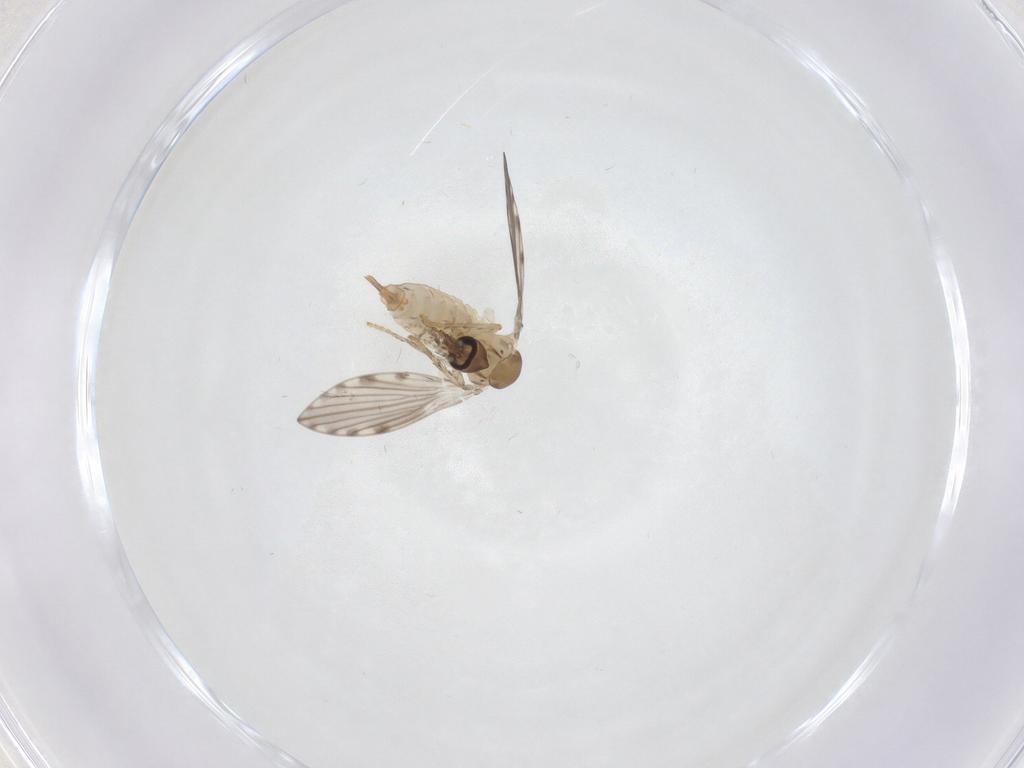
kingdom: Animalia
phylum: Arthropoda
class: Insecta
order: Diptera
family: Psychodidae
